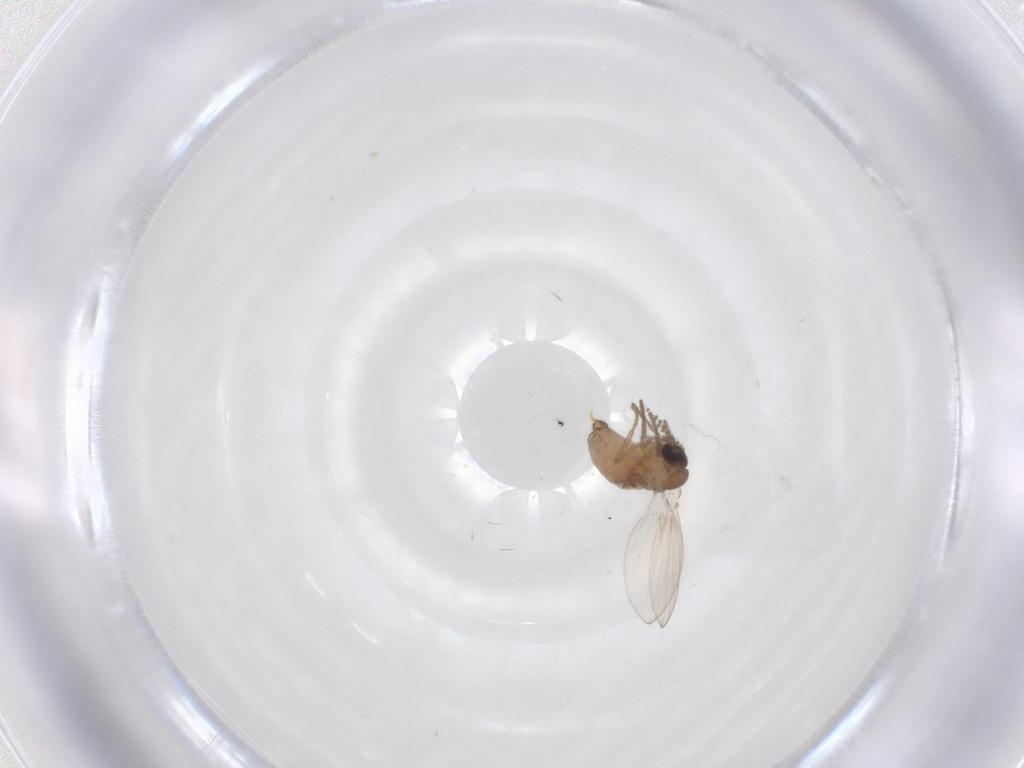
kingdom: Animalia
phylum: Arthropoda
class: Insecta
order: Diptera
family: Psychodidae
